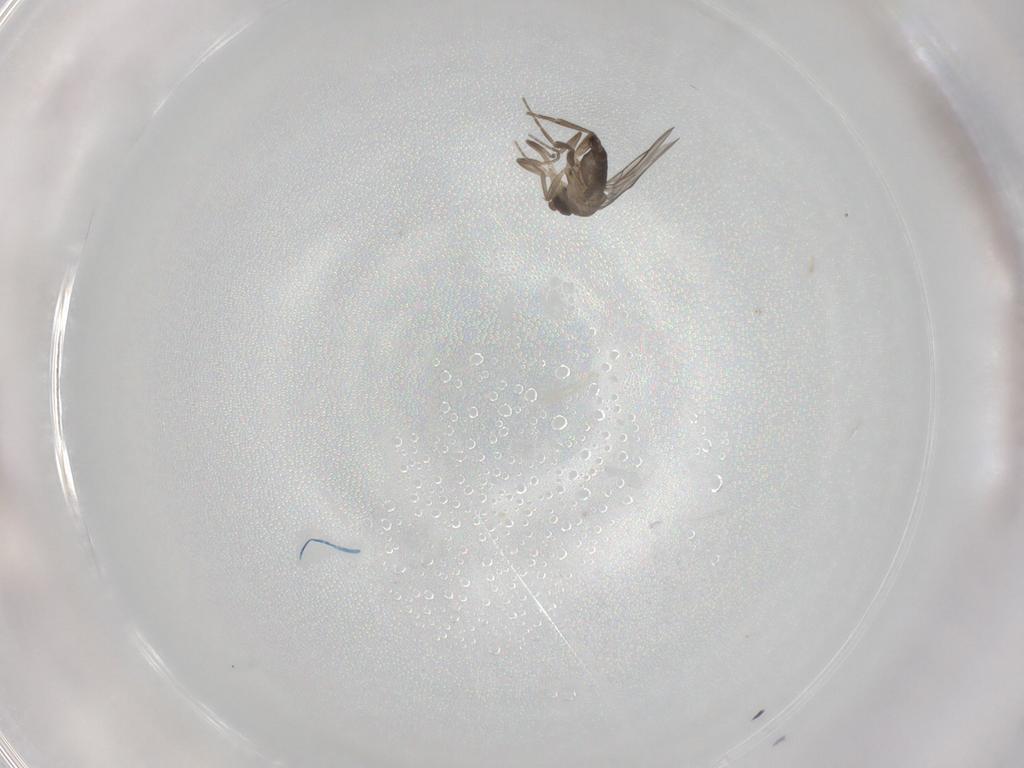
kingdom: Animalia
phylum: Arthropoda
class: Insecta
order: Diptera
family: Phoridae
